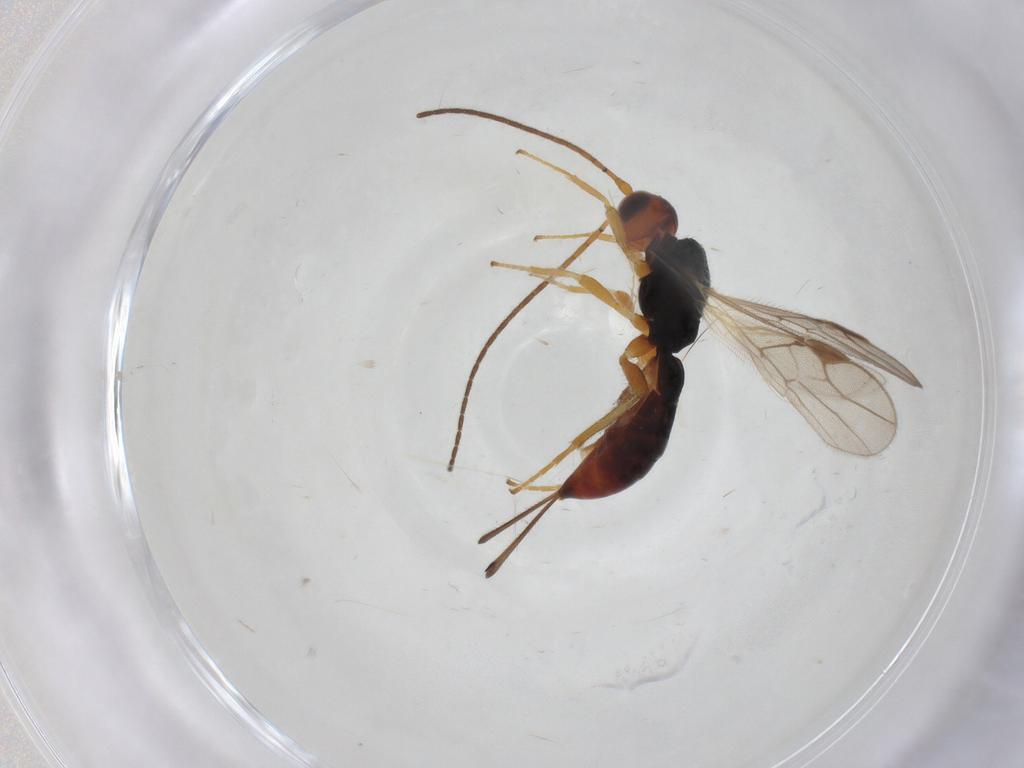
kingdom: Animalia
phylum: Arthropoda
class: Insecta
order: Hymenoptera
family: Braconidae
